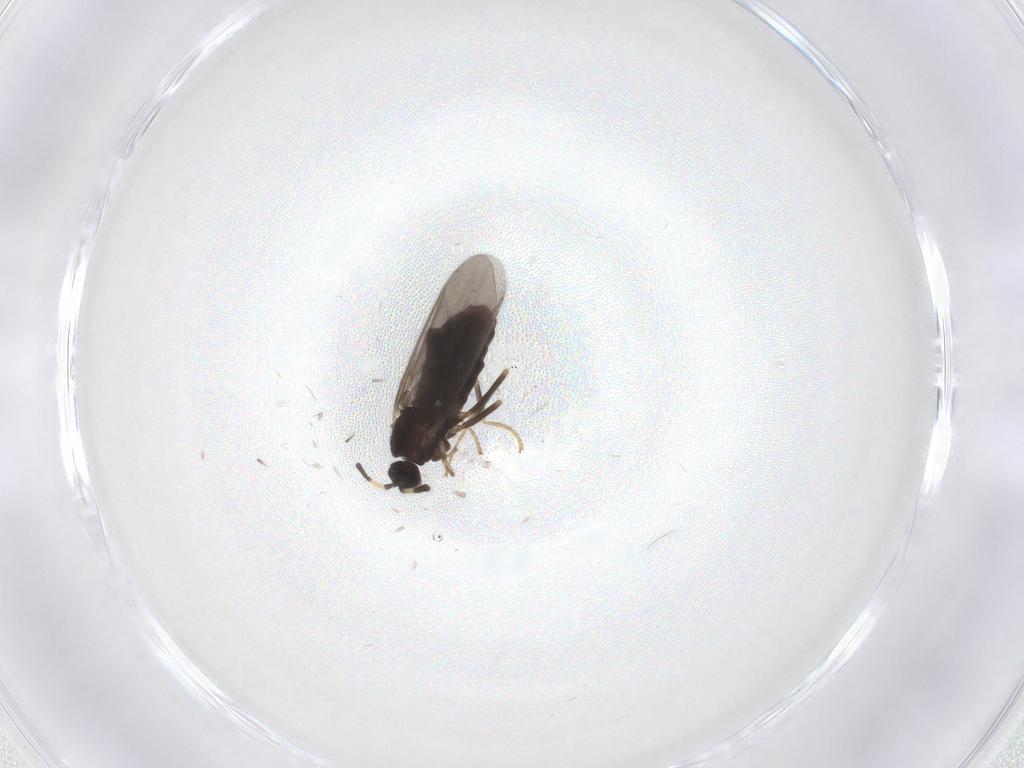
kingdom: Animalia
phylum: Arthropoda
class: Insecta
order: Diptera
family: Scatopsidae
